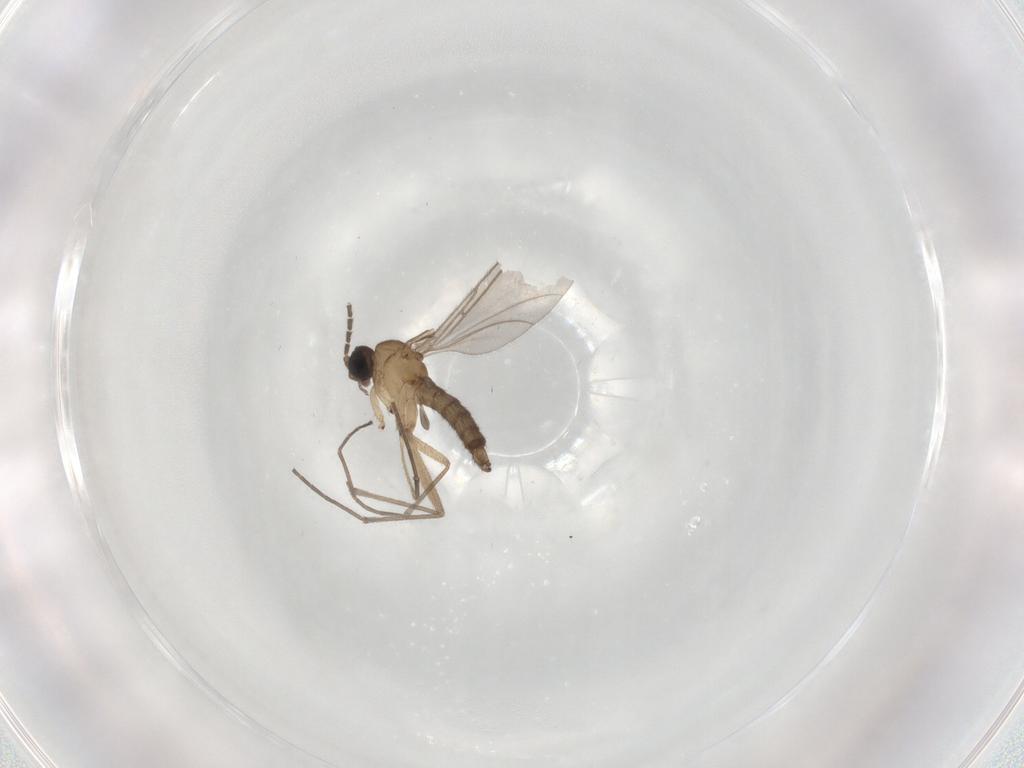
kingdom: Animalia
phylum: Arthropoda
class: Insecta
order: Diptera
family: Sciaridae
